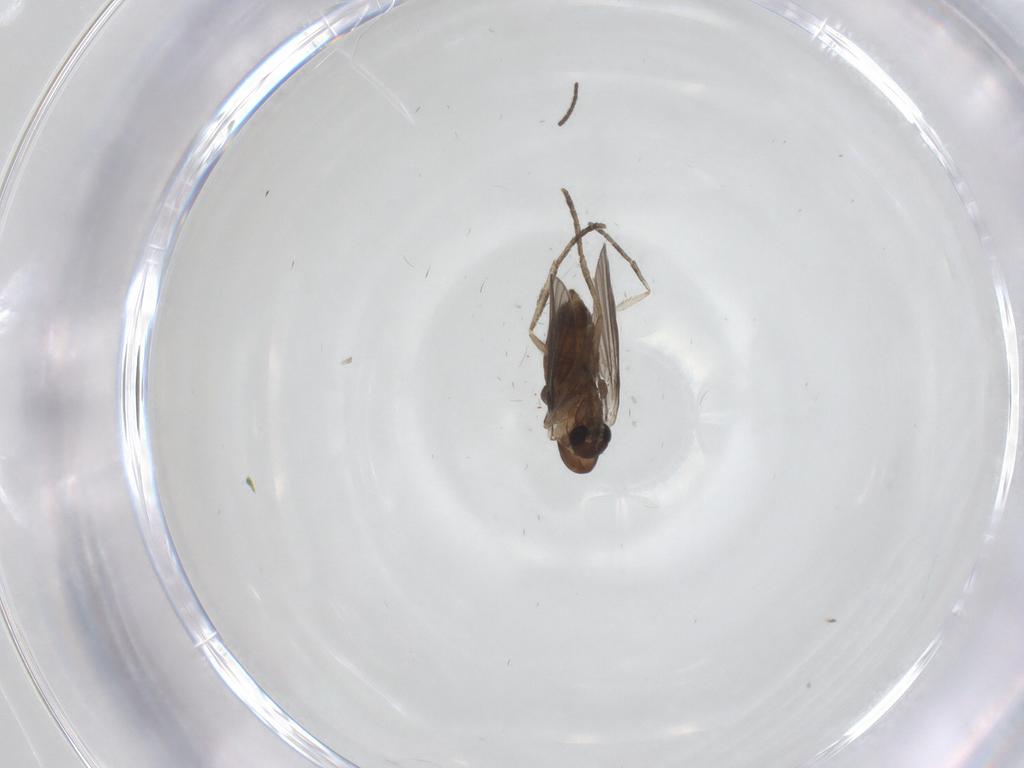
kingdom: Animalia
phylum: Arthropoda
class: Insecta
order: Diptera
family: Sciaridae
